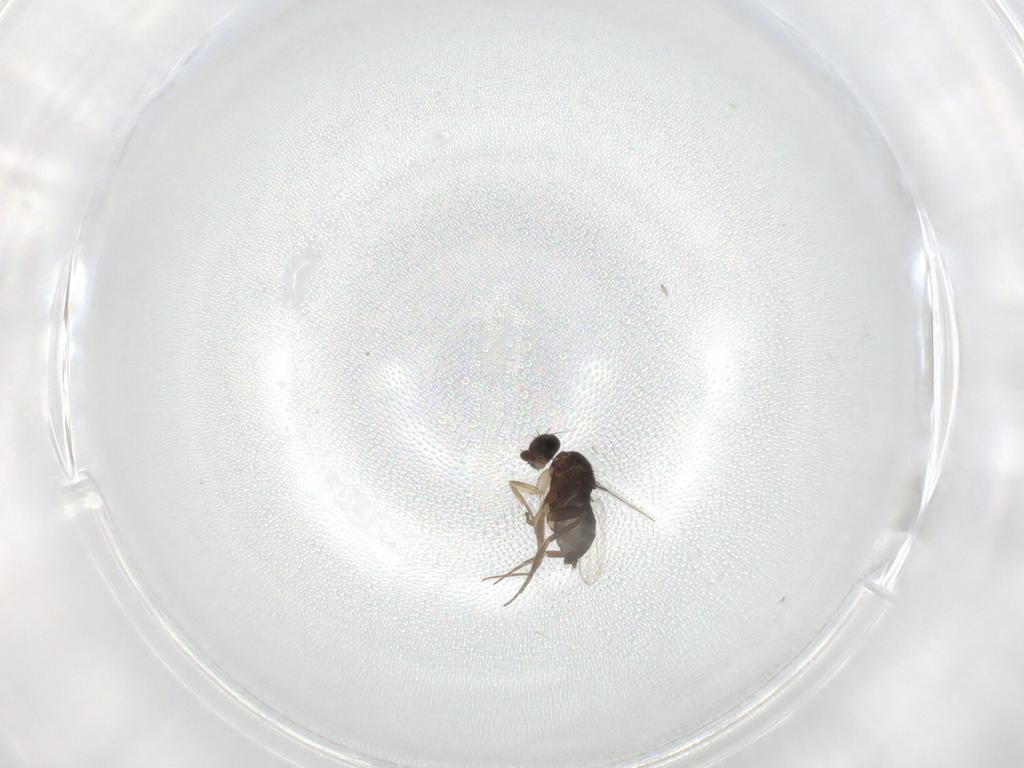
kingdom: Animalia
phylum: Arthropoda
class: Insecta
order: Diptera
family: Phoridae
